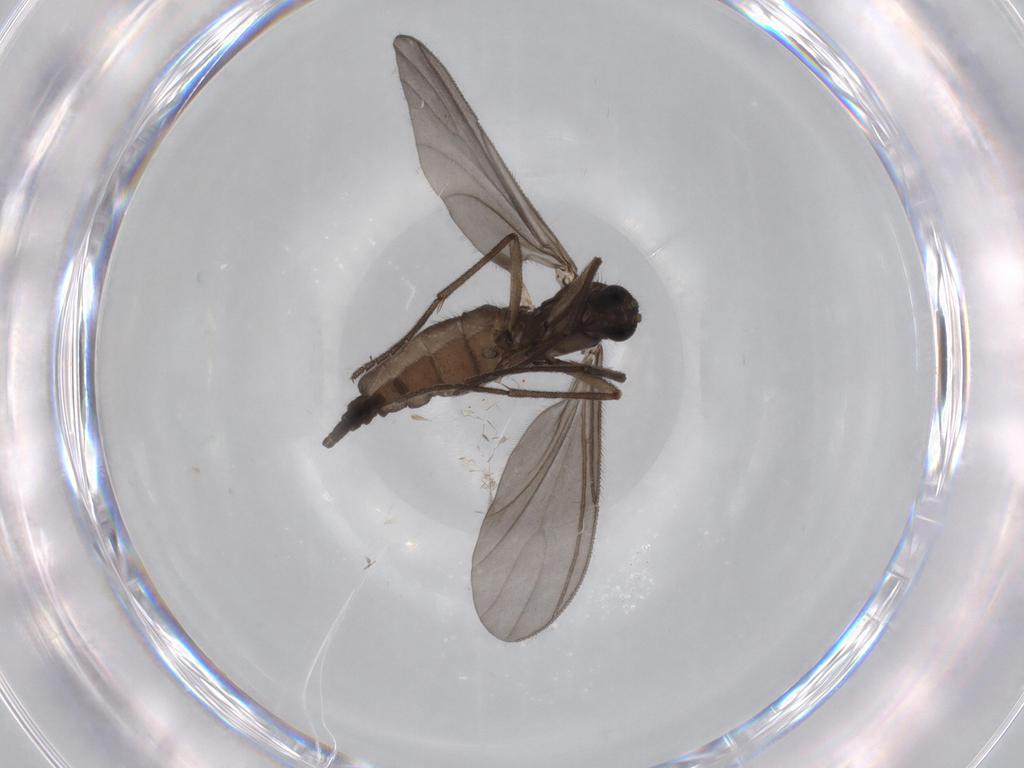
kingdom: Animalia
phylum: Arthropoda
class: Insecta
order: Diptera
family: Sciaridae
